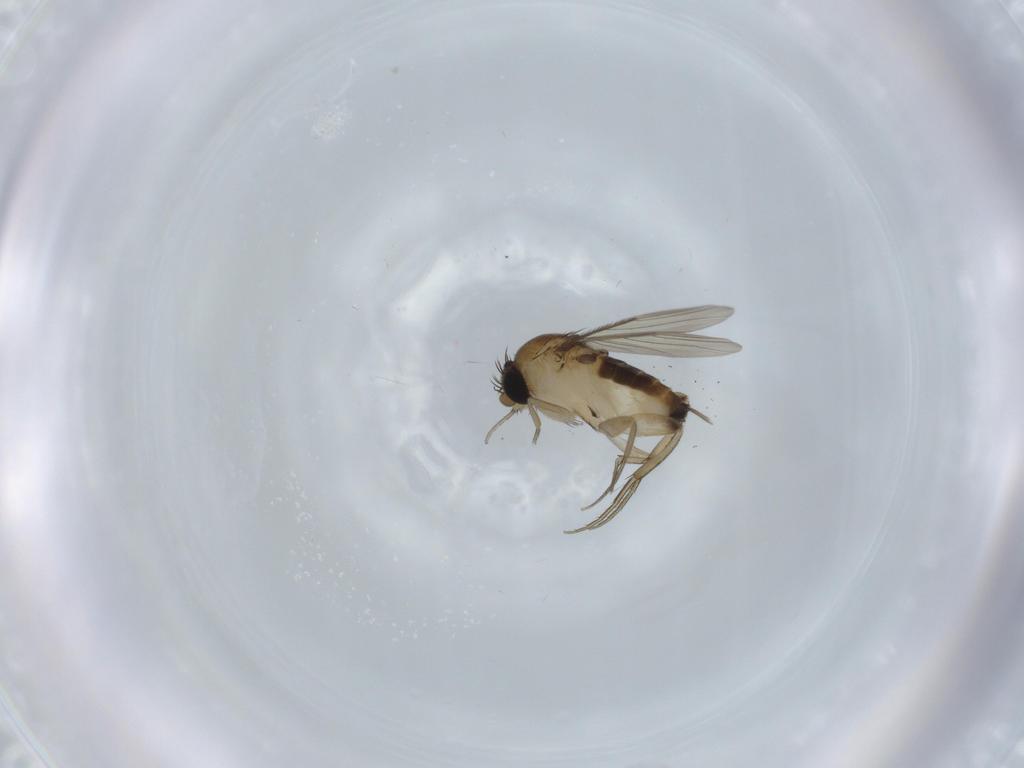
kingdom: Animalia
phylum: Arthropoda
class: Insecta
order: Diptera
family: Phoridae
